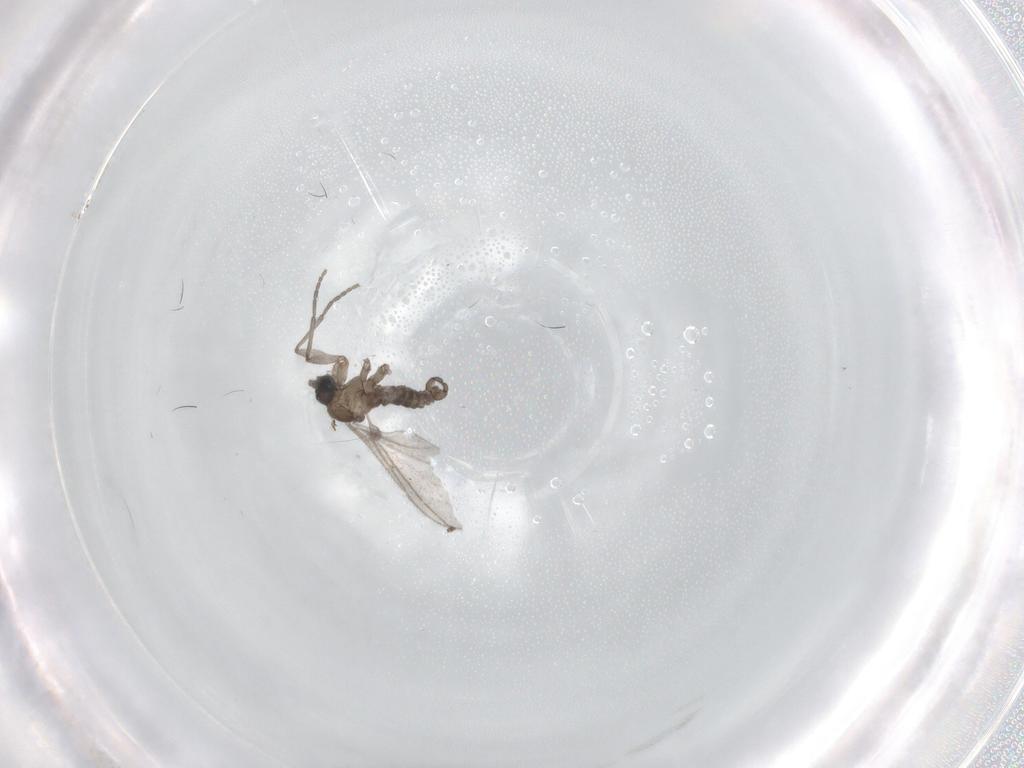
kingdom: Animalia
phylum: Arthropoda
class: Insecta
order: Diptera
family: Sciaridae
